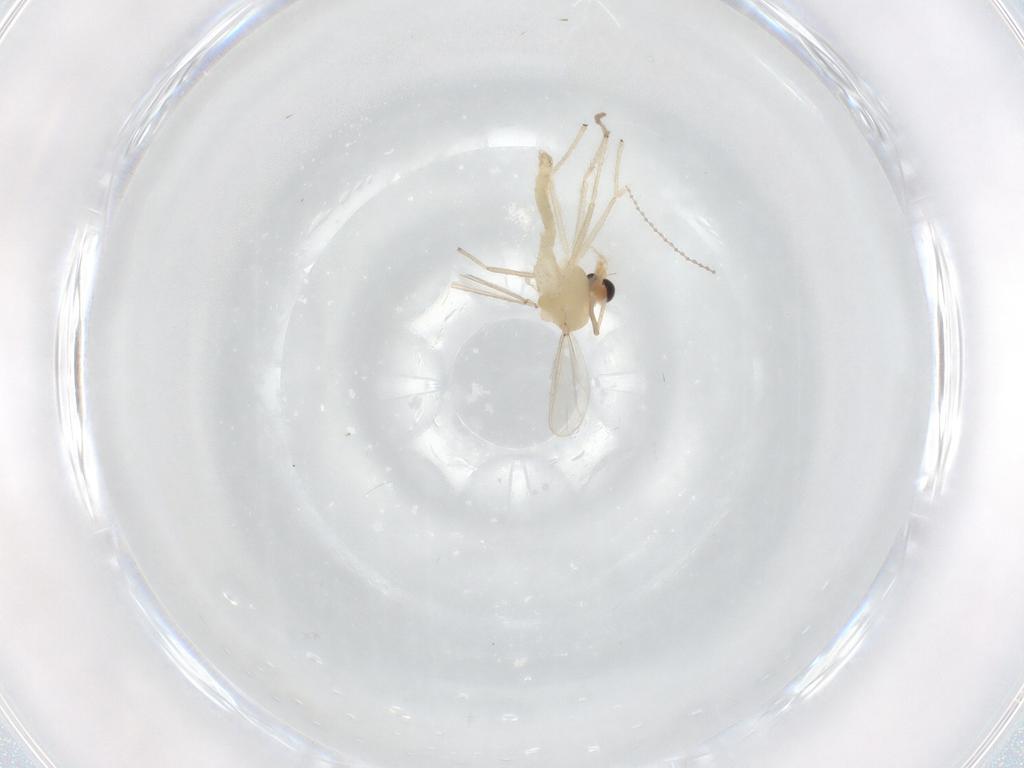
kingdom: Animalia
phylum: Arthropoda
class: Insecta
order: Diptera
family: Chironomidae
